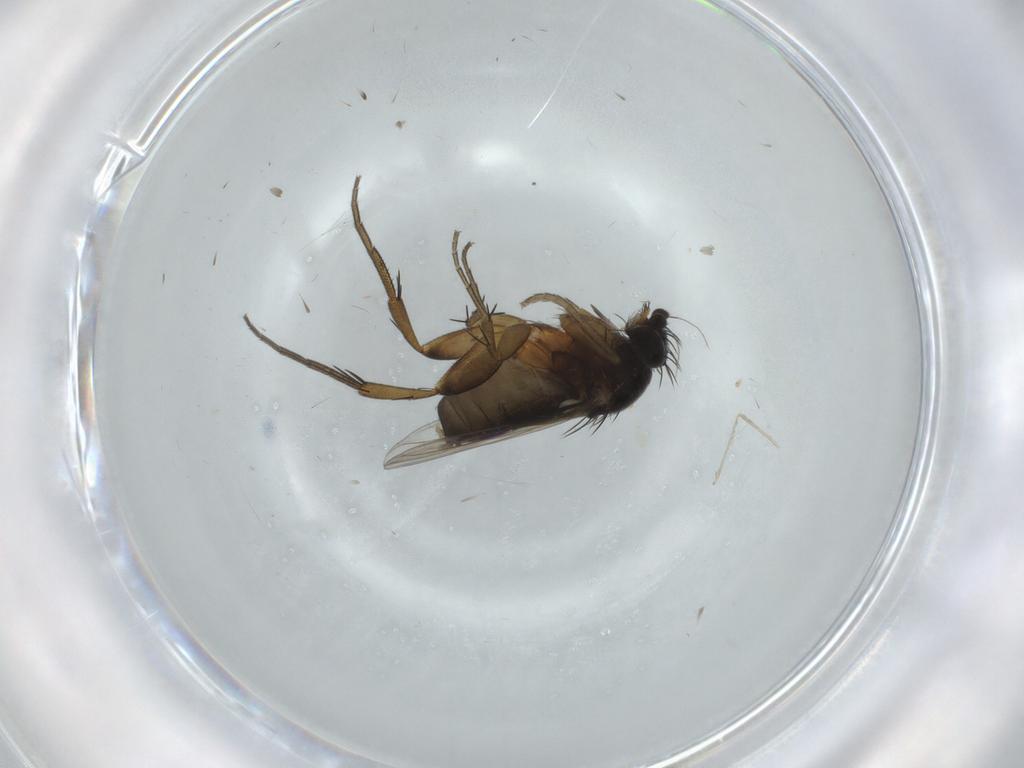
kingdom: Animalia
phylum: Arthropoda
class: Insecta
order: Diptera
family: Phoridae
